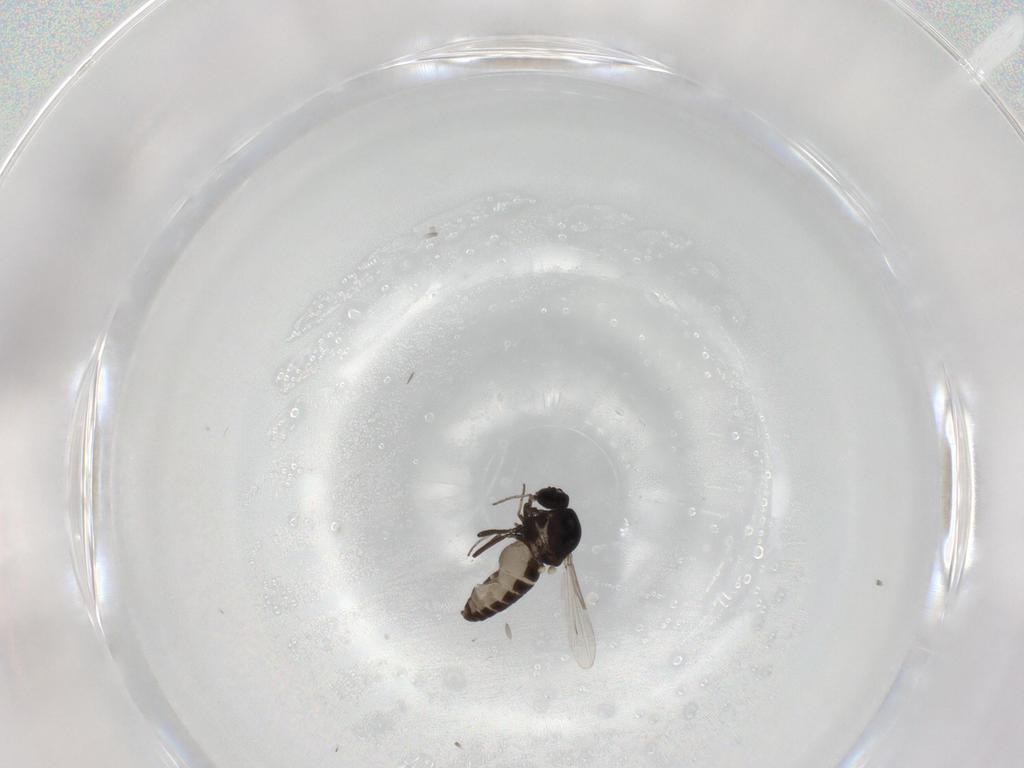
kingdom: Animalia
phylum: Arthropoda
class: Insecta
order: Diptera
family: Ceratopogonidae
